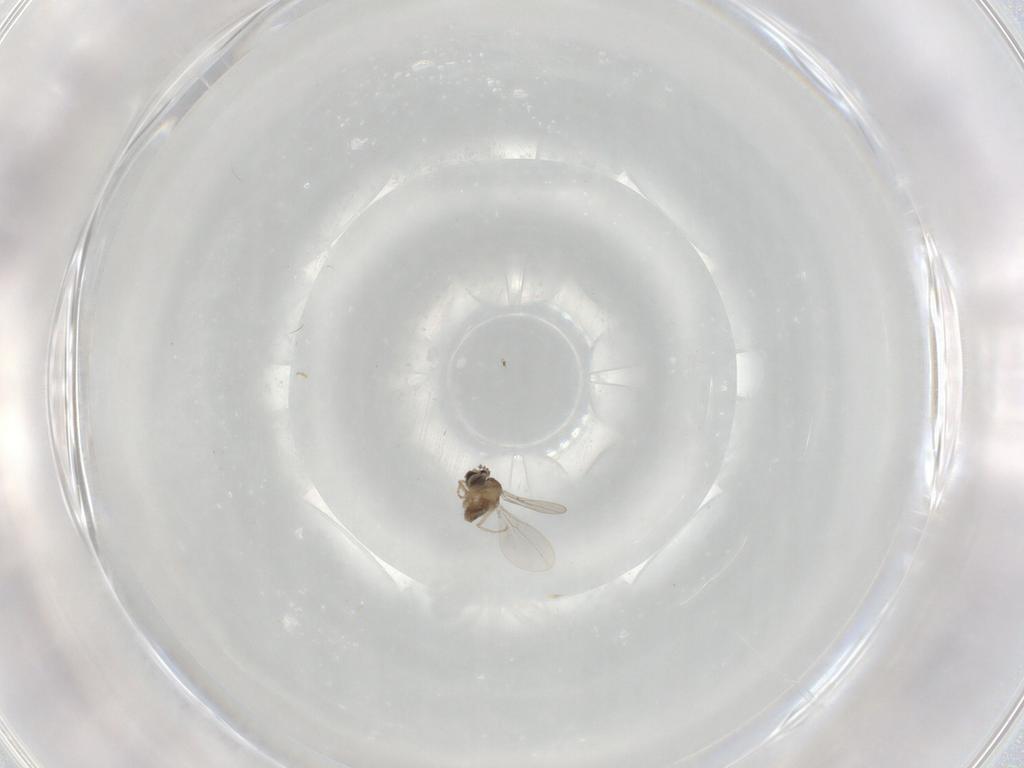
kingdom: Animalia
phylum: Arthropoda
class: Insecta
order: Diptera
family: Cecidomyiidae
